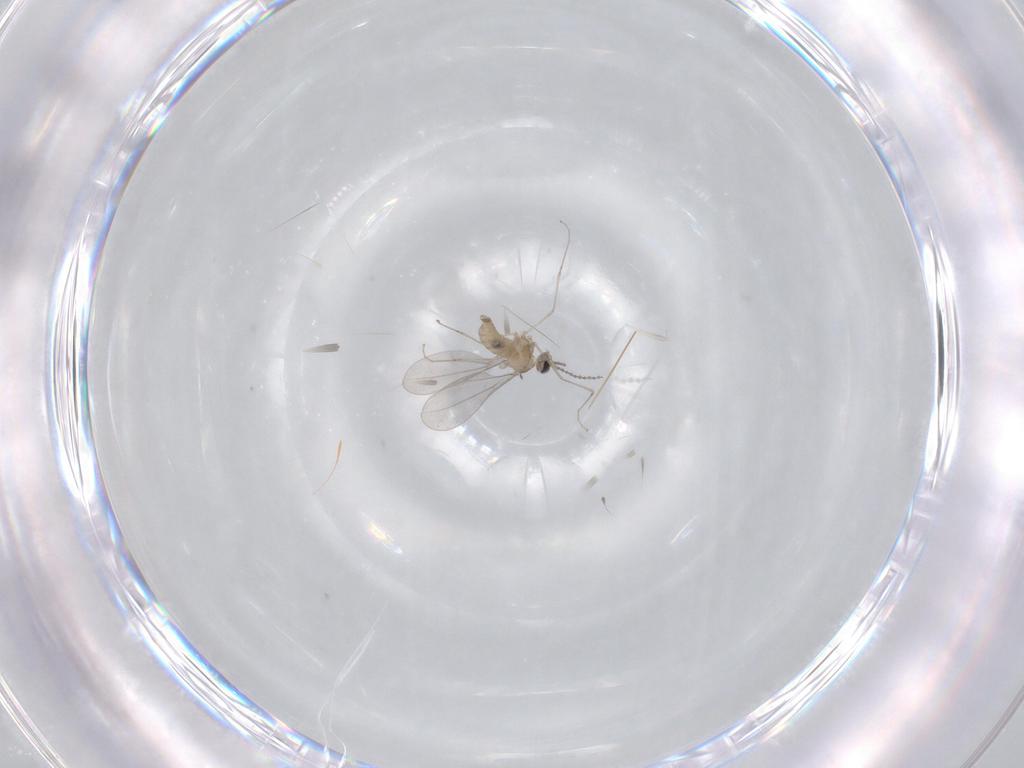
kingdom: Animalia
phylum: Arthropoda
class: Insecta
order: Diptera
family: Cecidomyiidae
